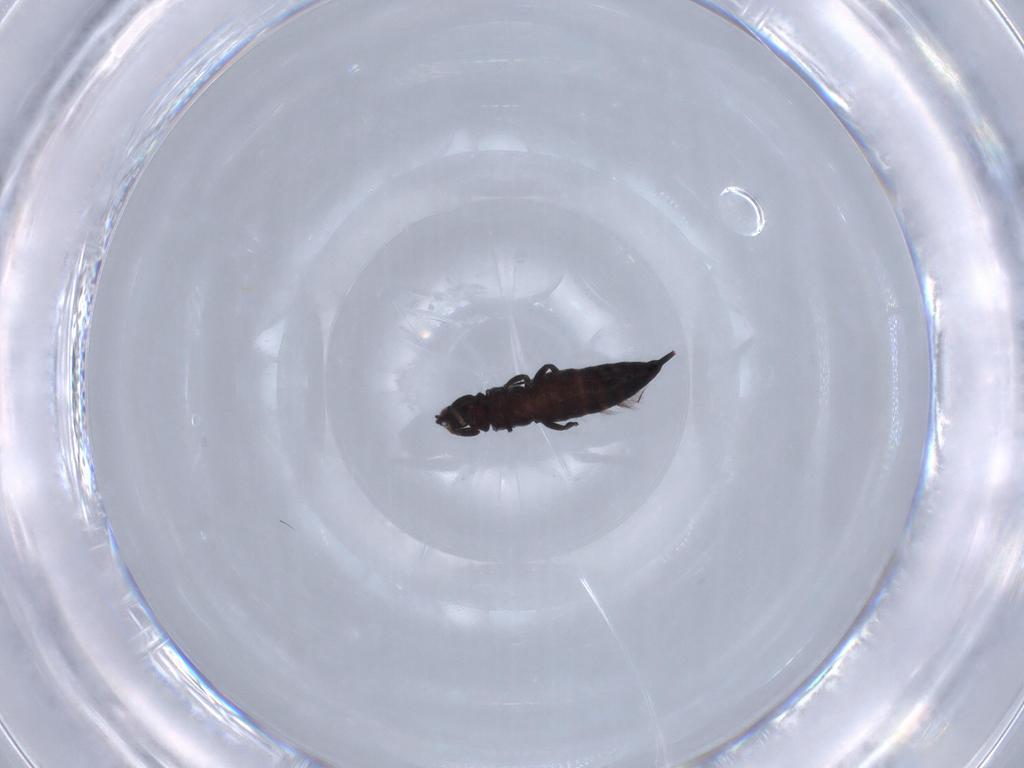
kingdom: Animalia
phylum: Arthropoda
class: Insecta
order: Thysanoptera
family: Phlaeothripidae
